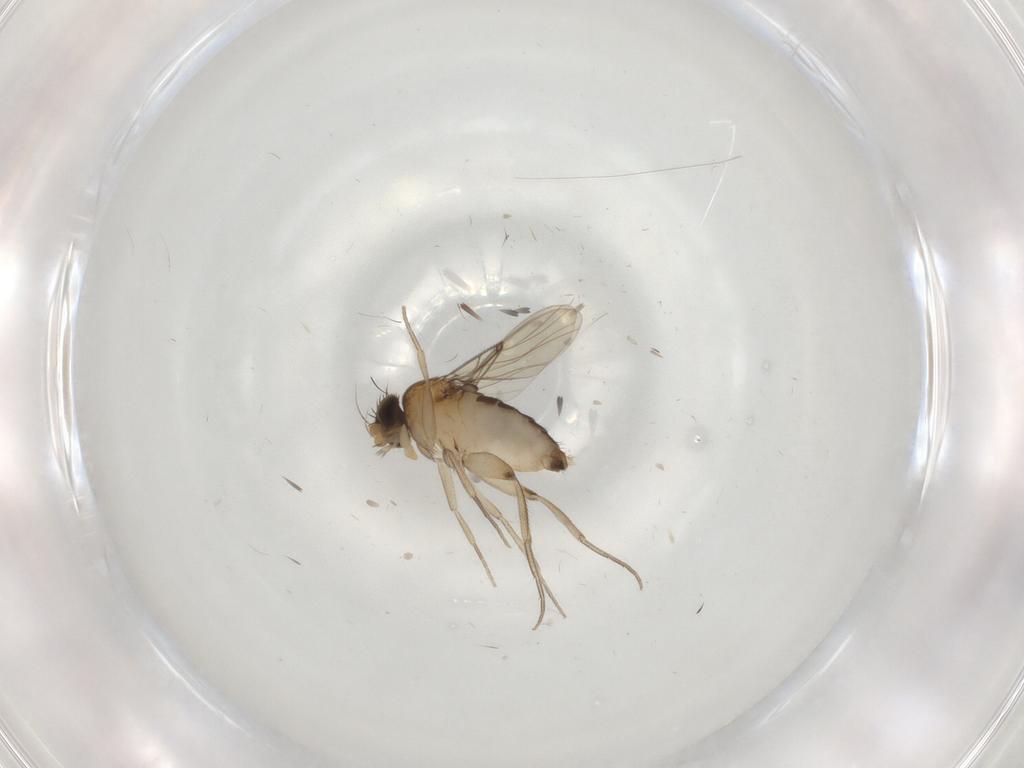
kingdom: Animalia
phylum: Arthropoda
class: Insecta
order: Diptera
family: Phoridae
